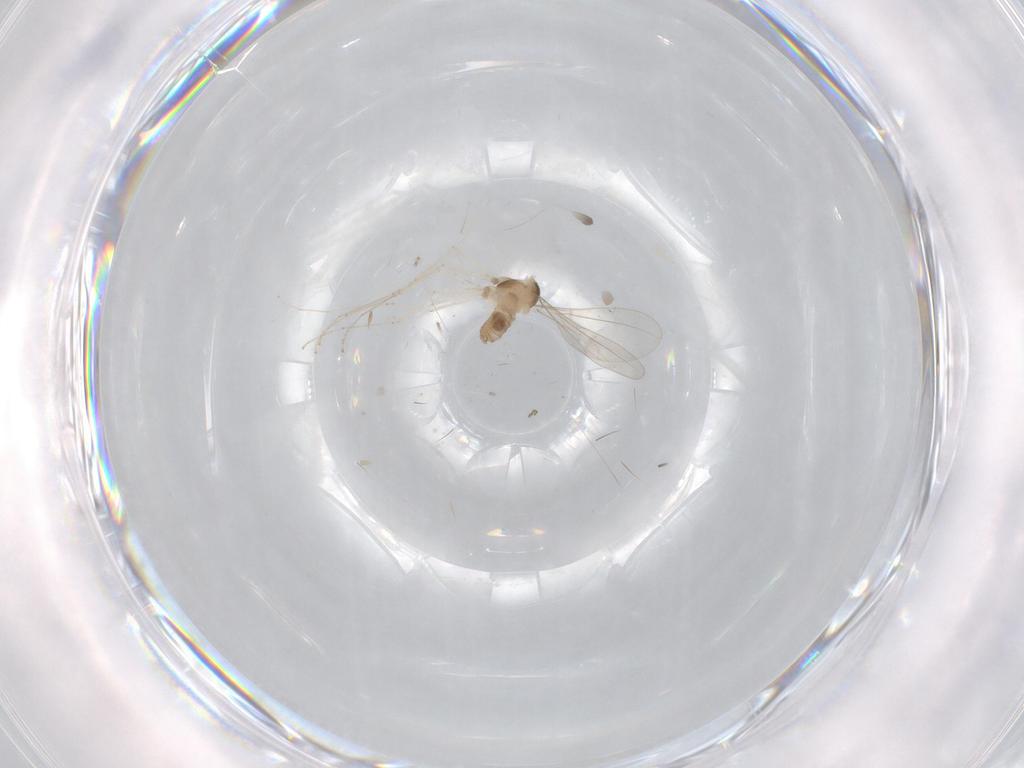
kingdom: Animalia
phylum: Arthropoda
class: Insecta
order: Diptera
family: Cecidomyiidae
